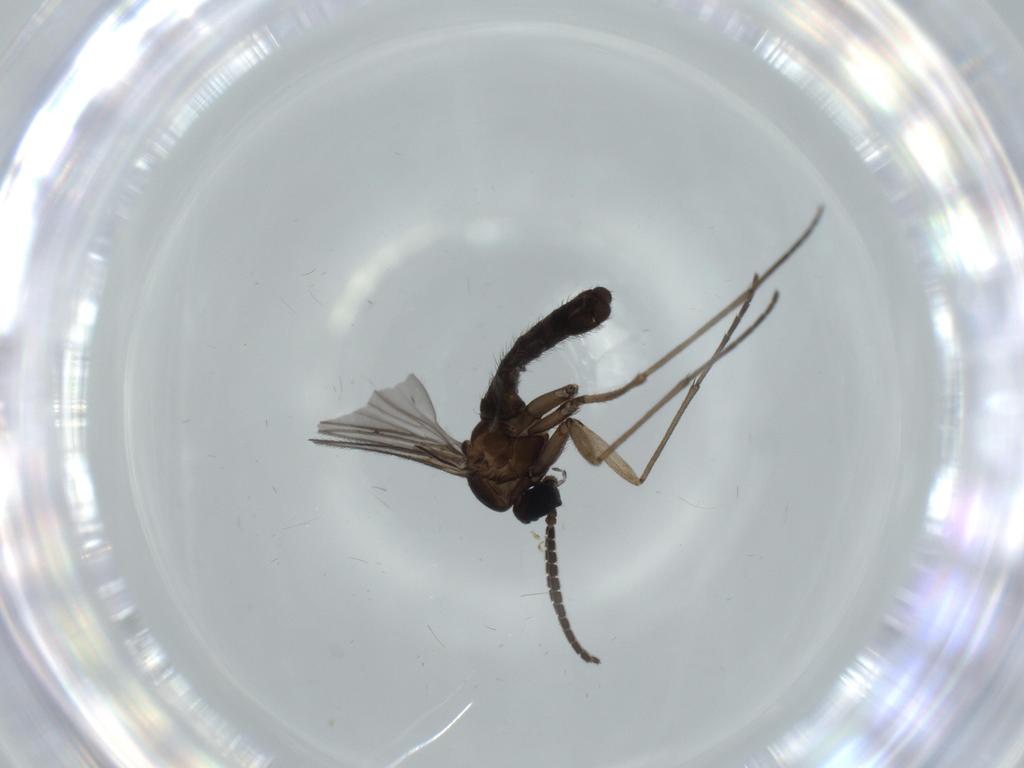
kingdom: Animalia
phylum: Arthropoda
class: Insecta
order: Diptera
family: Sciaridae
